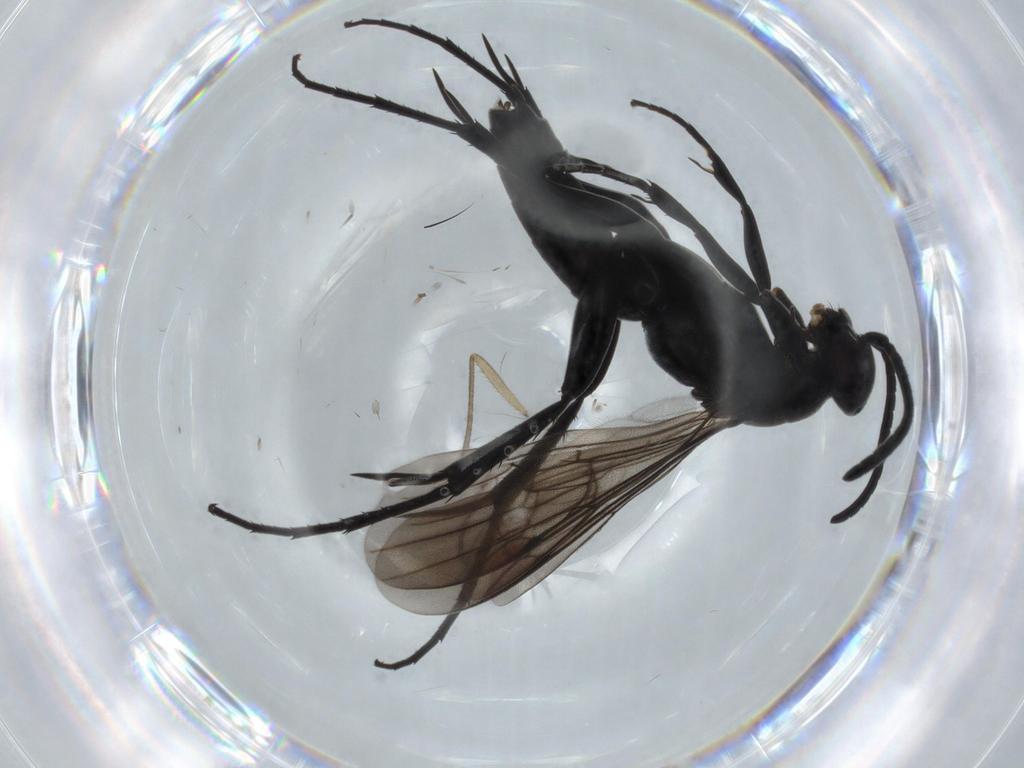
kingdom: Animalia
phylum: Arthropoda
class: Insecta
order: Hymenoptera
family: Pompilidae
